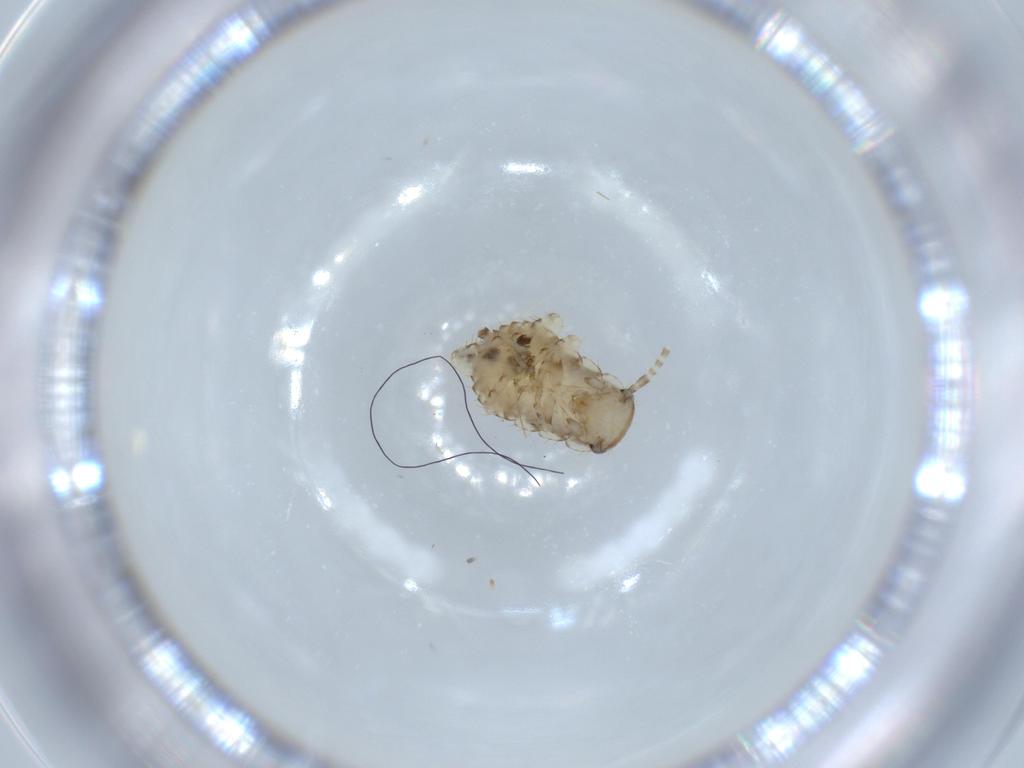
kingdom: Animalia
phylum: Arthropoda
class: Insecta
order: Blattodea
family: Ectobiidae
